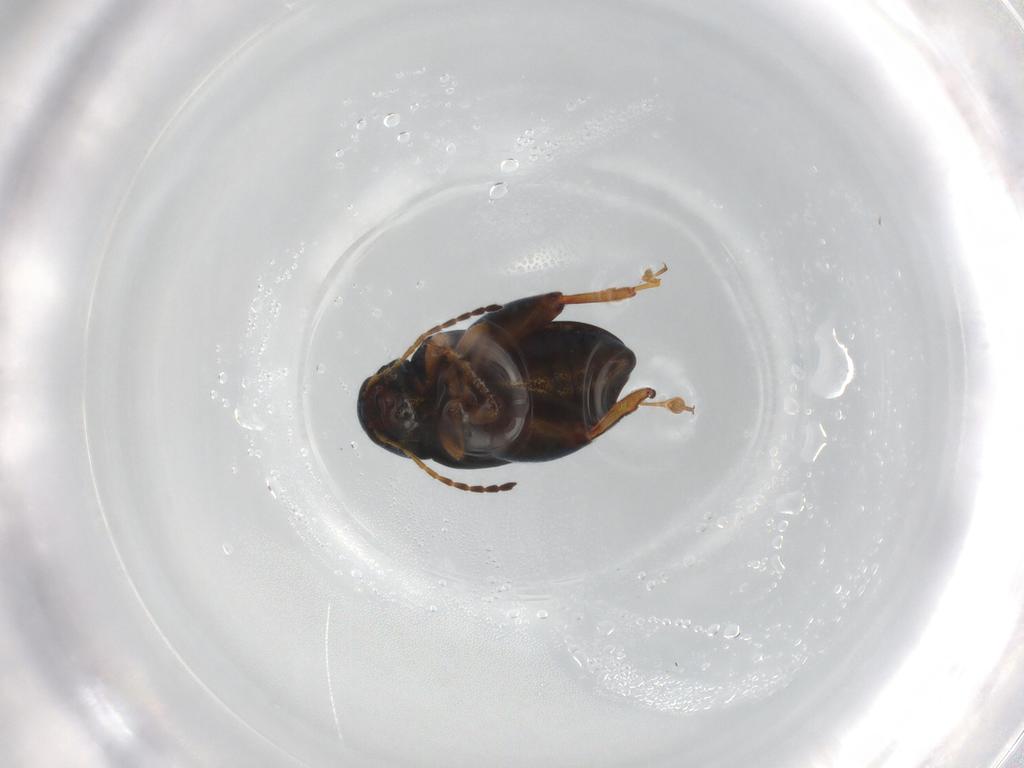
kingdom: Animalia
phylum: Arthropoda
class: Insecta
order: Coleoptera
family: Chrysomelidae
